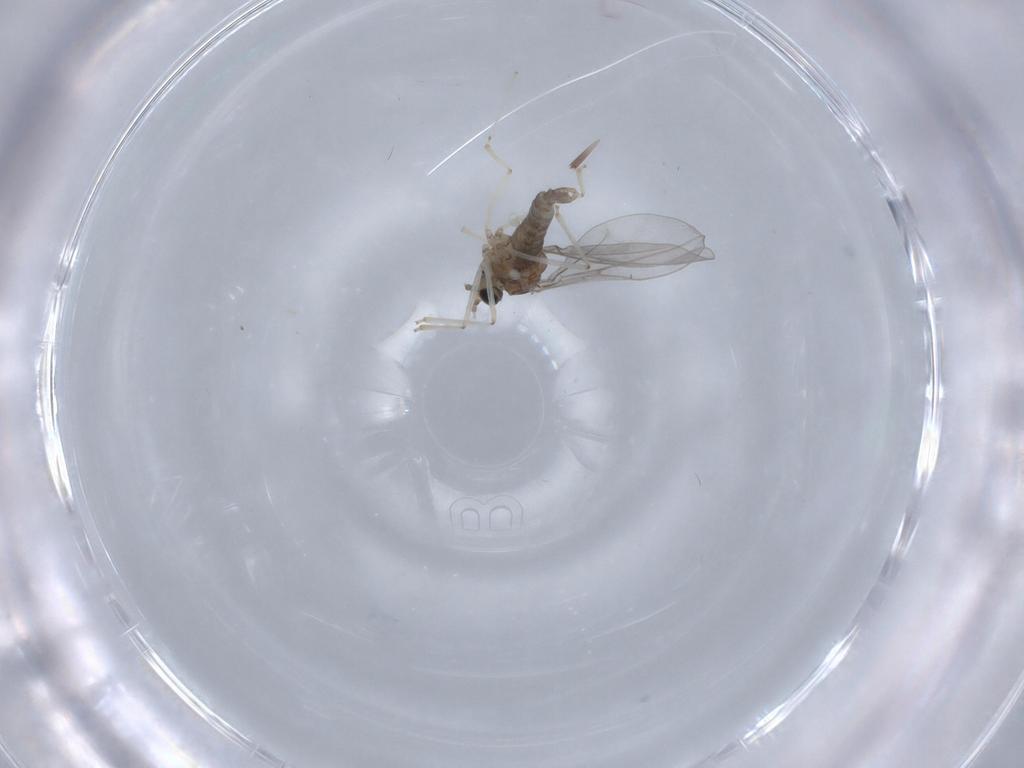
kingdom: Animalia
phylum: Arthropoda
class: Insecta
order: Diptera
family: Cecidomyiidae
